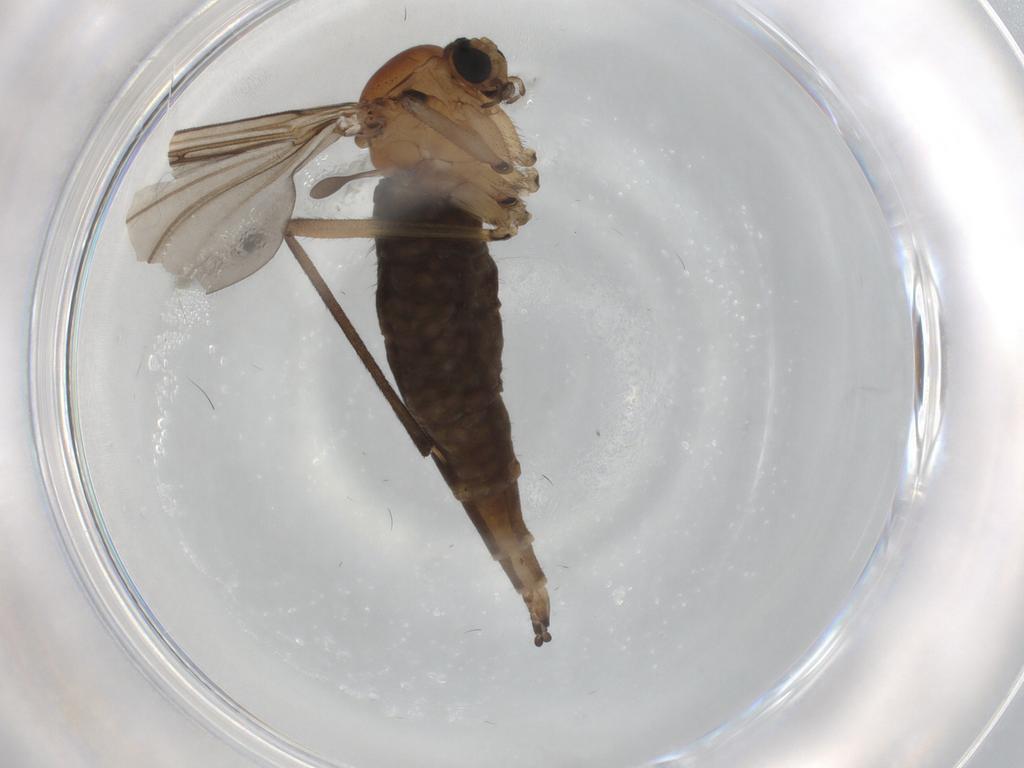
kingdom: Animalia
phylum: Arthropoda
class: Insecta
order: Diptera
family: Sciaridae
